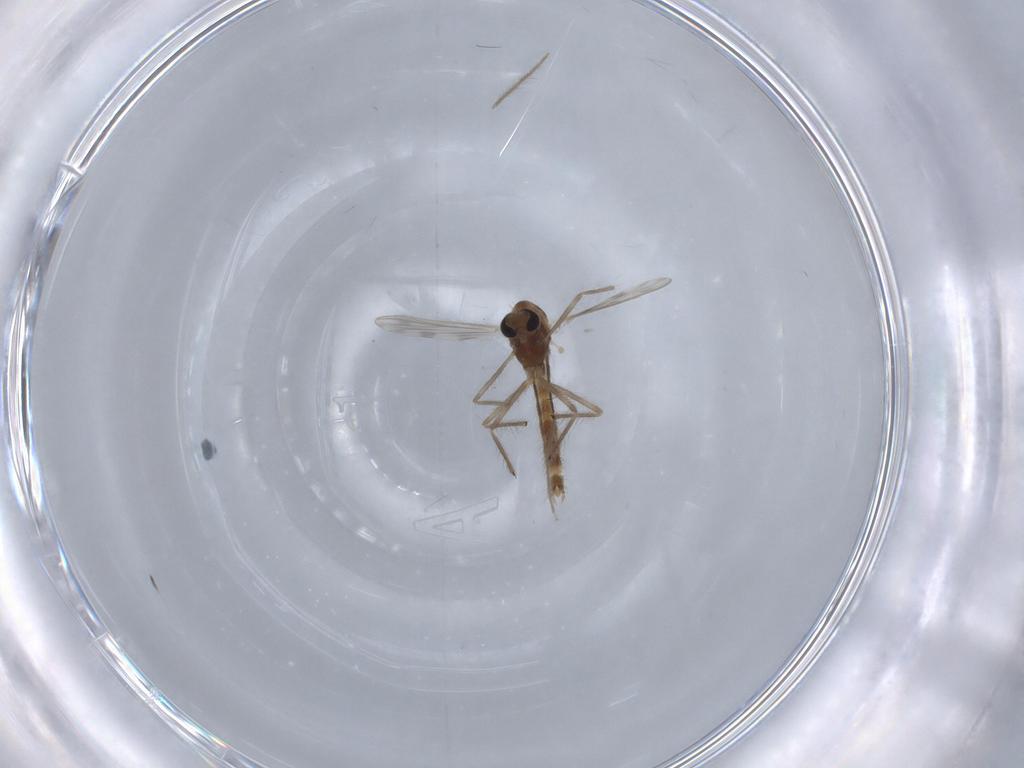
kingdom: Animalia
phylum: Arthropoda
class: Insecta
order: Diptera
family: Chironomidae
